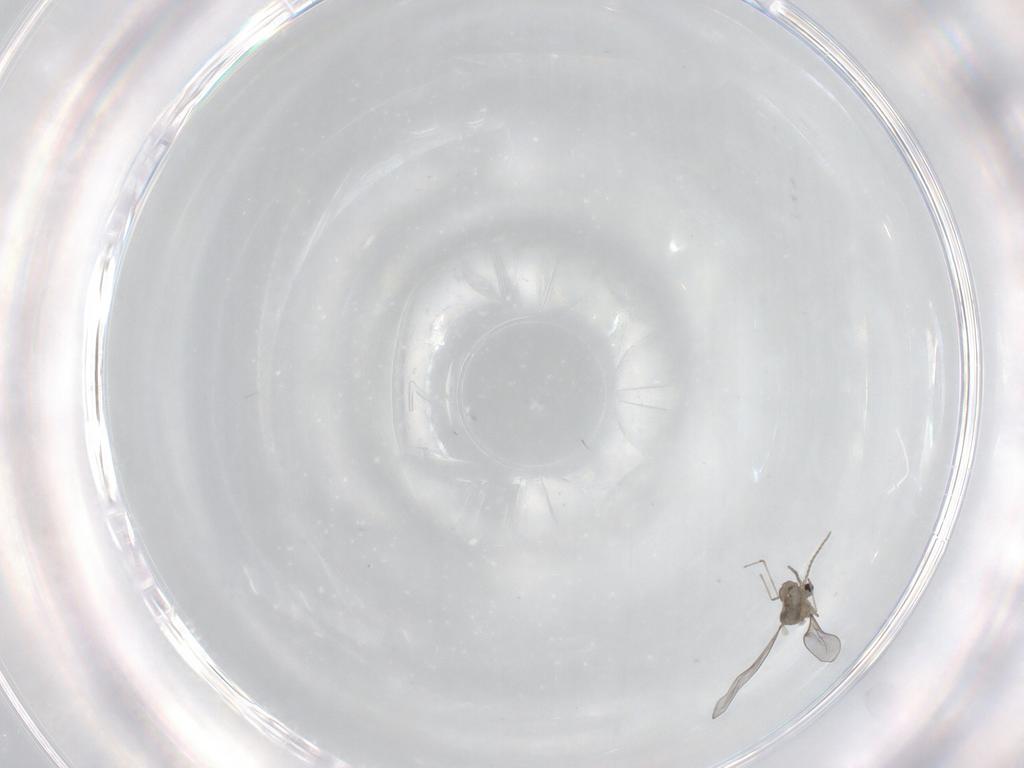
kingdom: Animalia
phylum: Arthropoda
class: Insecta
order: Diptera
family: Cecidomyiidae
